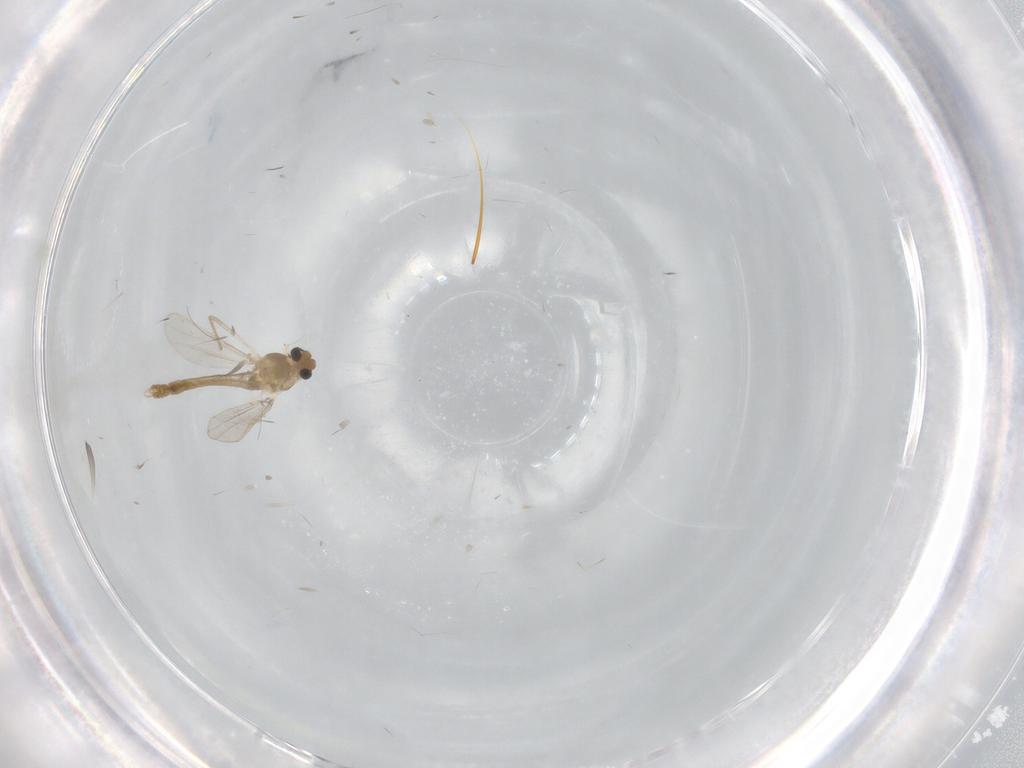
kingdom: Animalia
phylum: Arthropoda
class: Insecta
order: Diptera
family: Chironomidae
